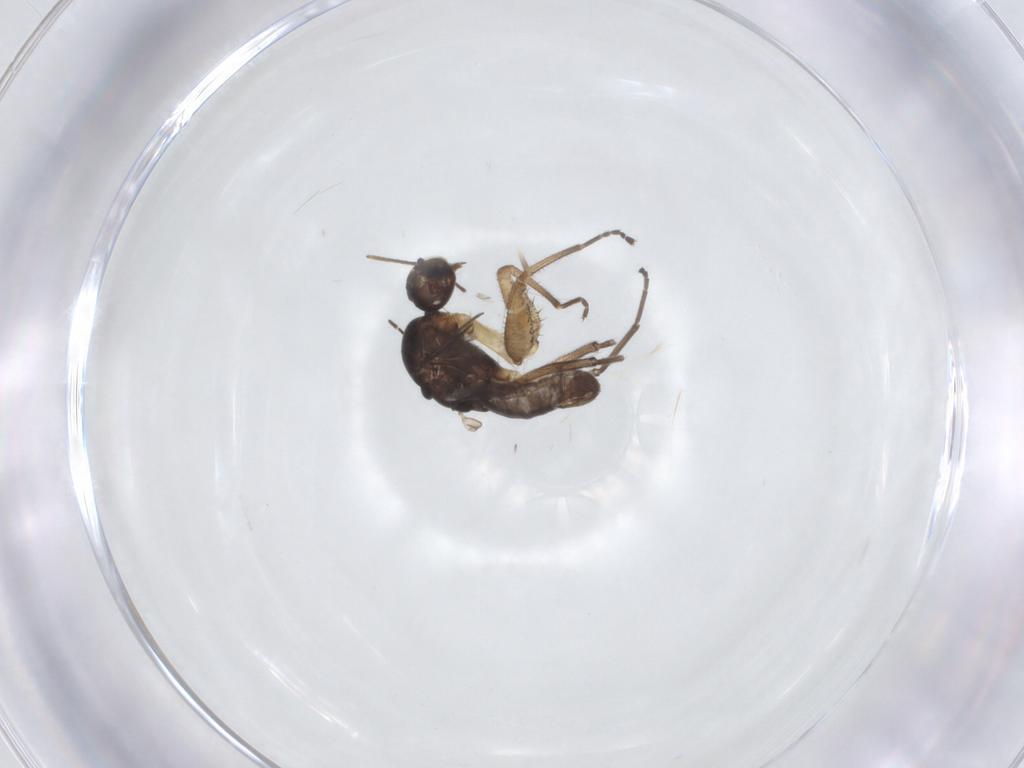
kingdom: Animalia
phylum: Arthropoda
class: Insecta
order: Diptera
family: Empididae
